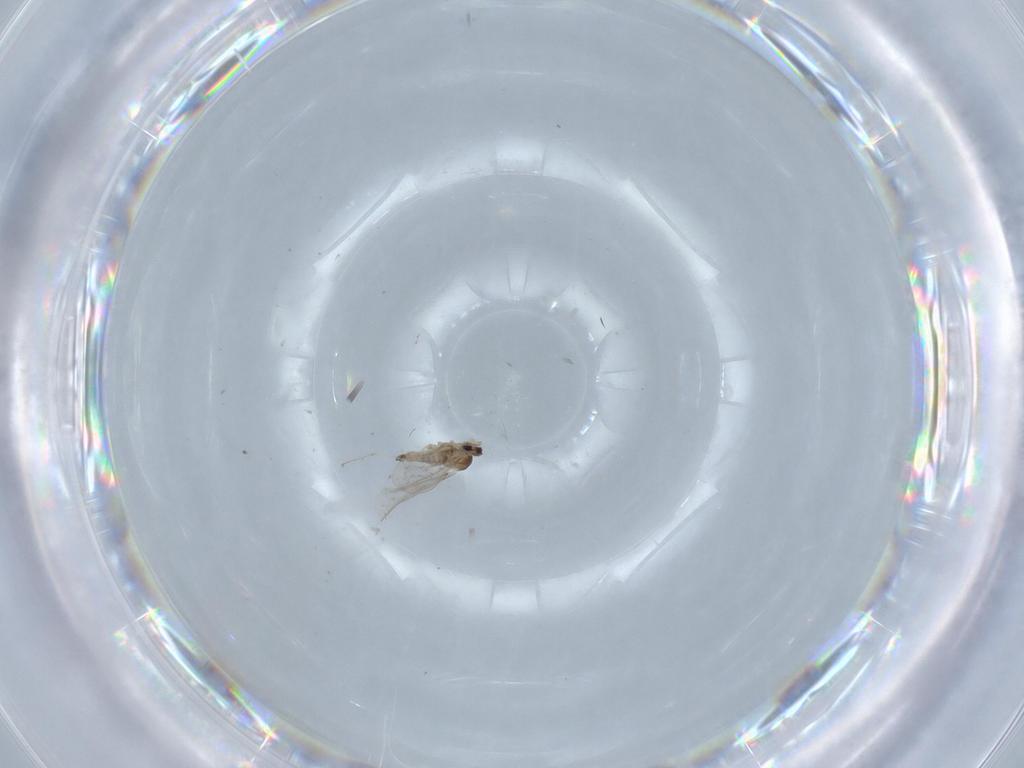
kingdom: Animalia
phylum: Arthropoda
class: Insecta
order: Diptera
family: Cecidomyiidae
